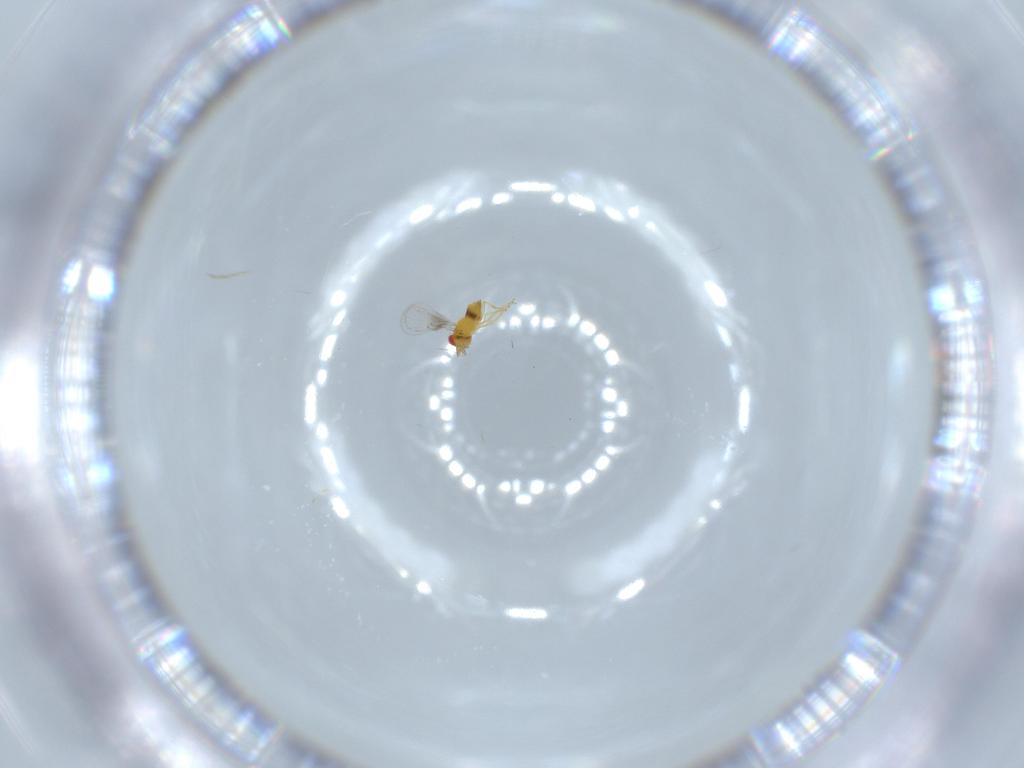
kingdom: Animalia
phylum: Arthropoda
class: Insecta
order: Hymenoptera
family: Trichogrammatidae
